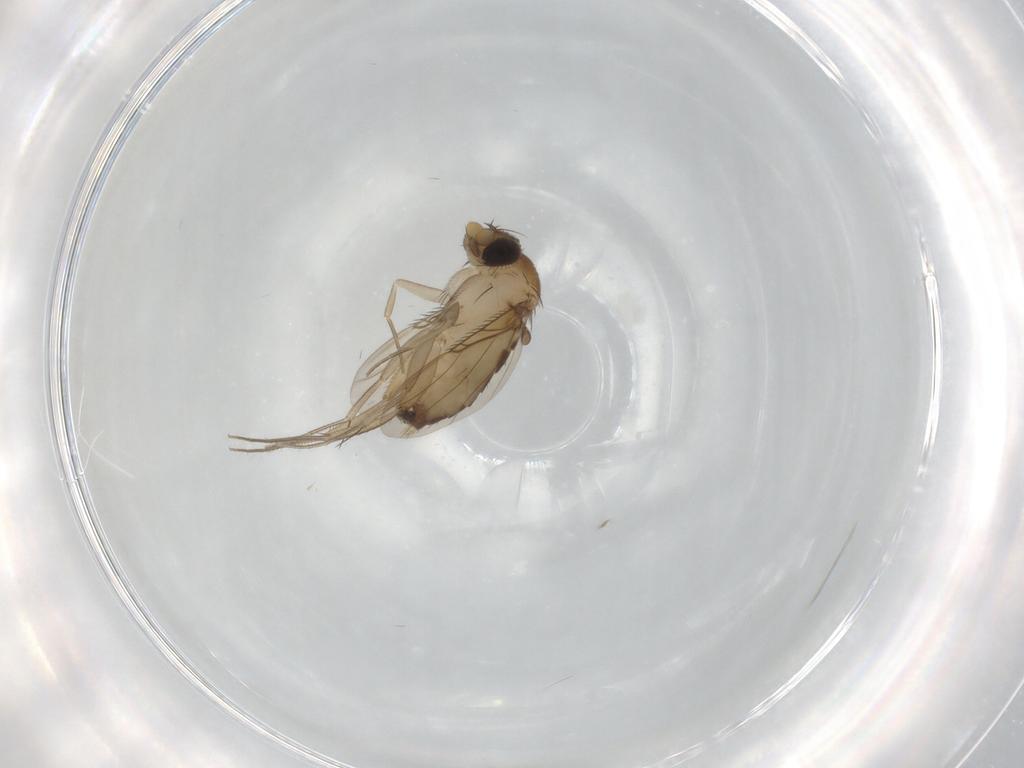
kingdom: Animalia
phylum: Arthropoda
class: Insecta
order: Diptera
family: Phoridae
